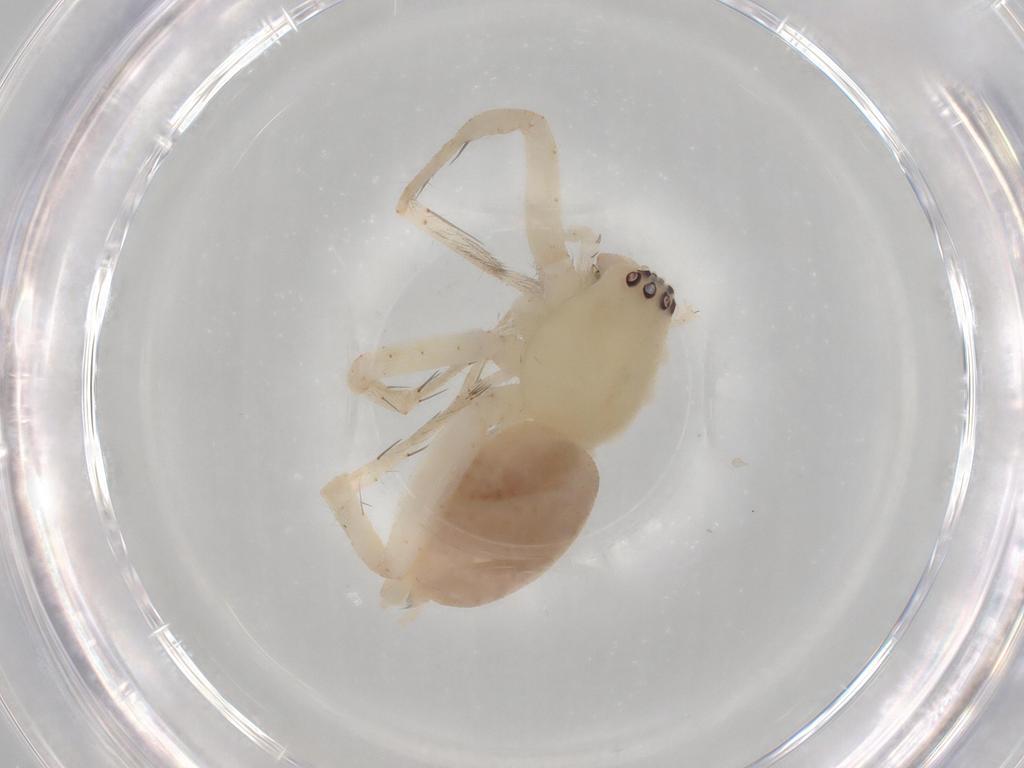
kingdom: Animalia
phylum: Arthropoda
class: Arachnida
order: Araneae
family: Anyphaenidae
